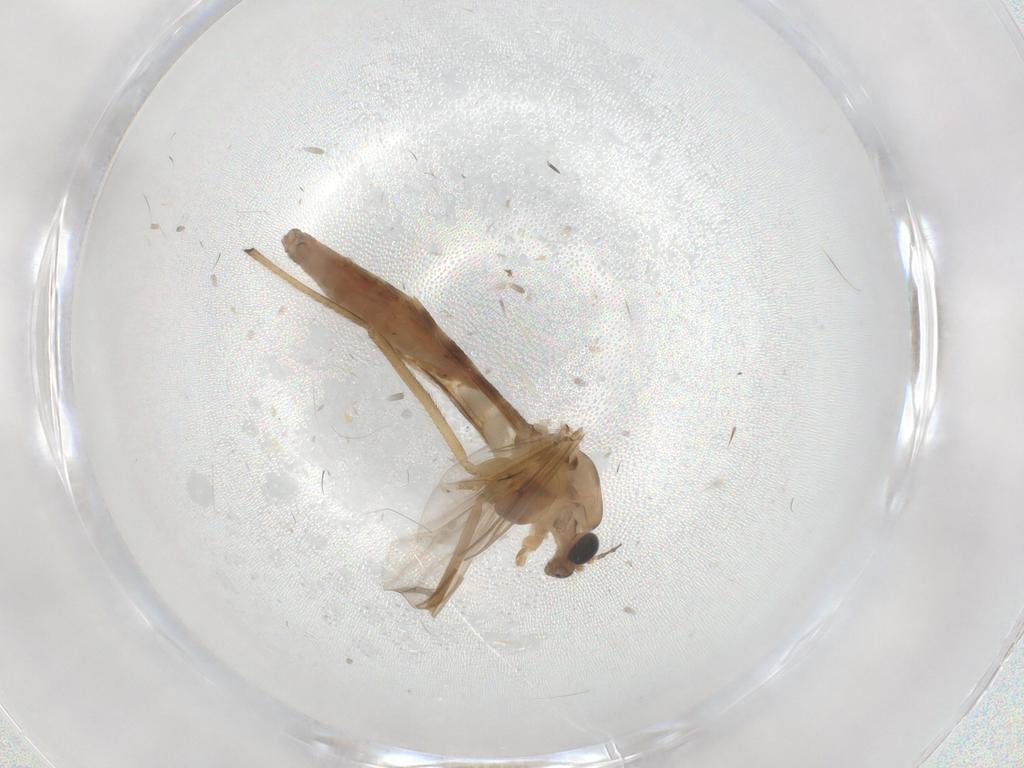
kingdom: Animalia
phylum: Arthropoda
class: Insecta
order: Diptera
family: Chironomidae
